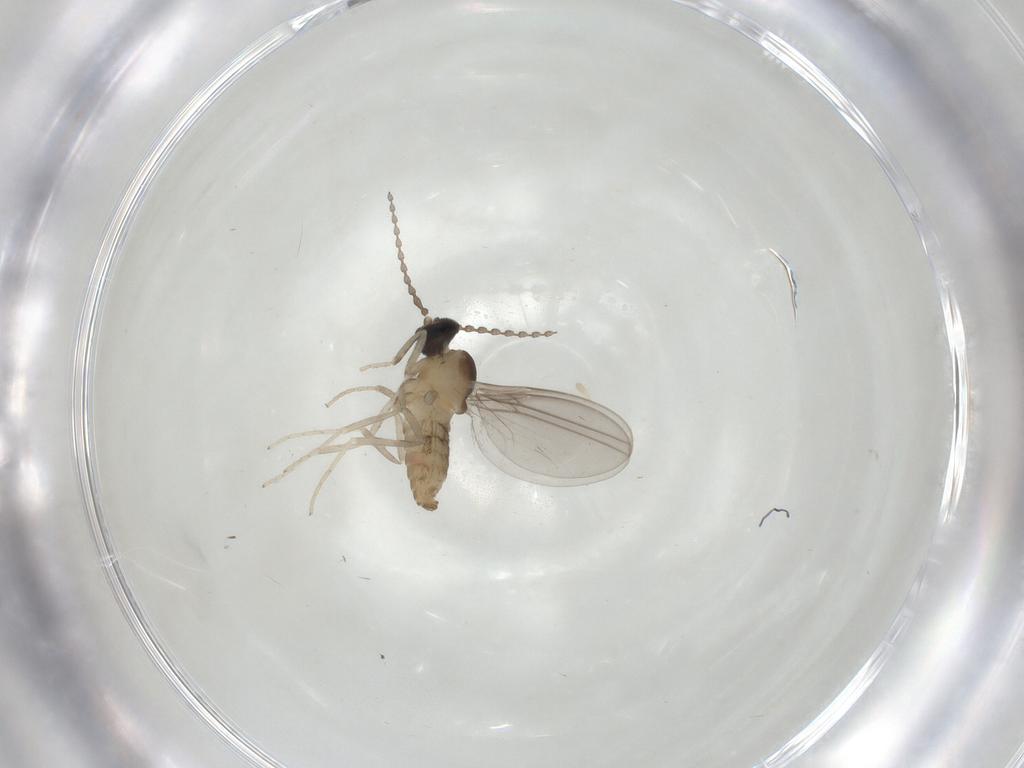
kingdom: Animalia
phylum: Arthropoda
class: Insecta
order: Diptera
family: Cecidomyiidae
